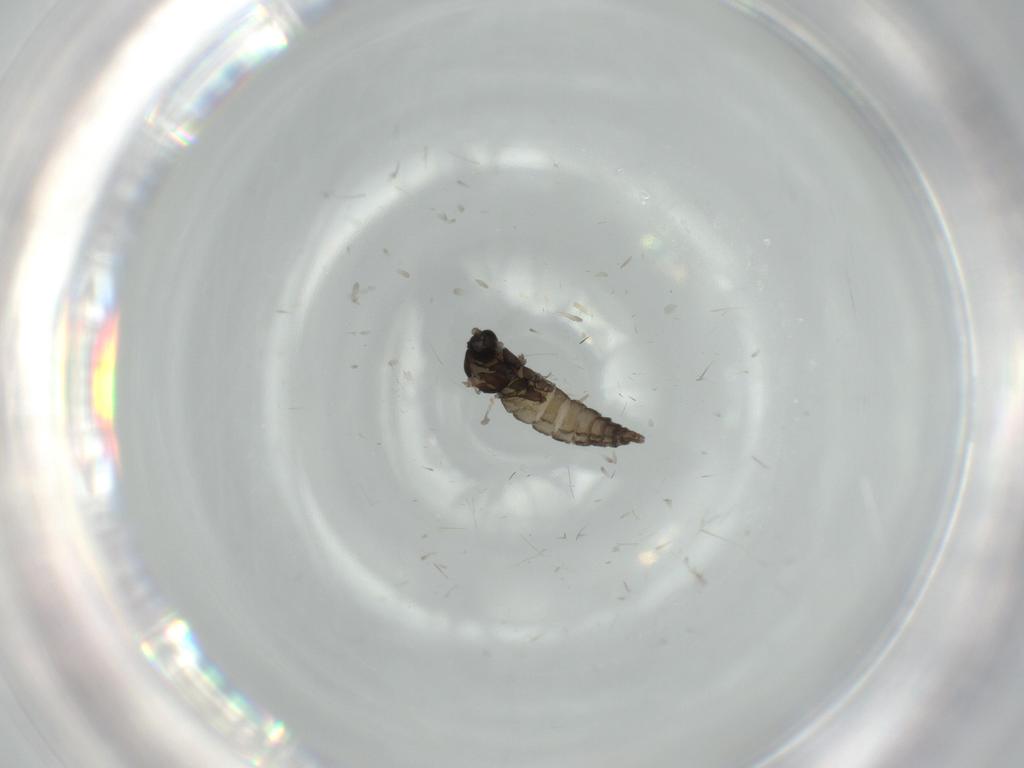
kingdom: Animalia
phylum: Arthropoda
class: Insecta
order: Diptera
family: Cecidomyiidae
